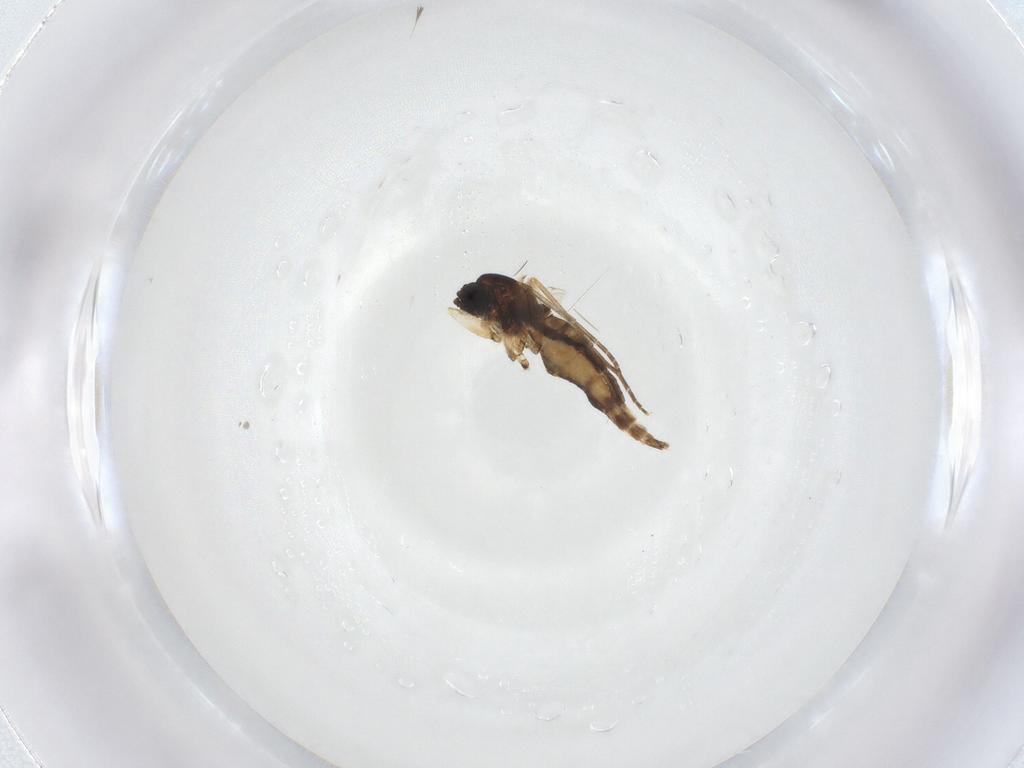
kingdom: Animalia
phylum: Arthropoda
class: Insecta
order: Diptera
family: Sciaridae
